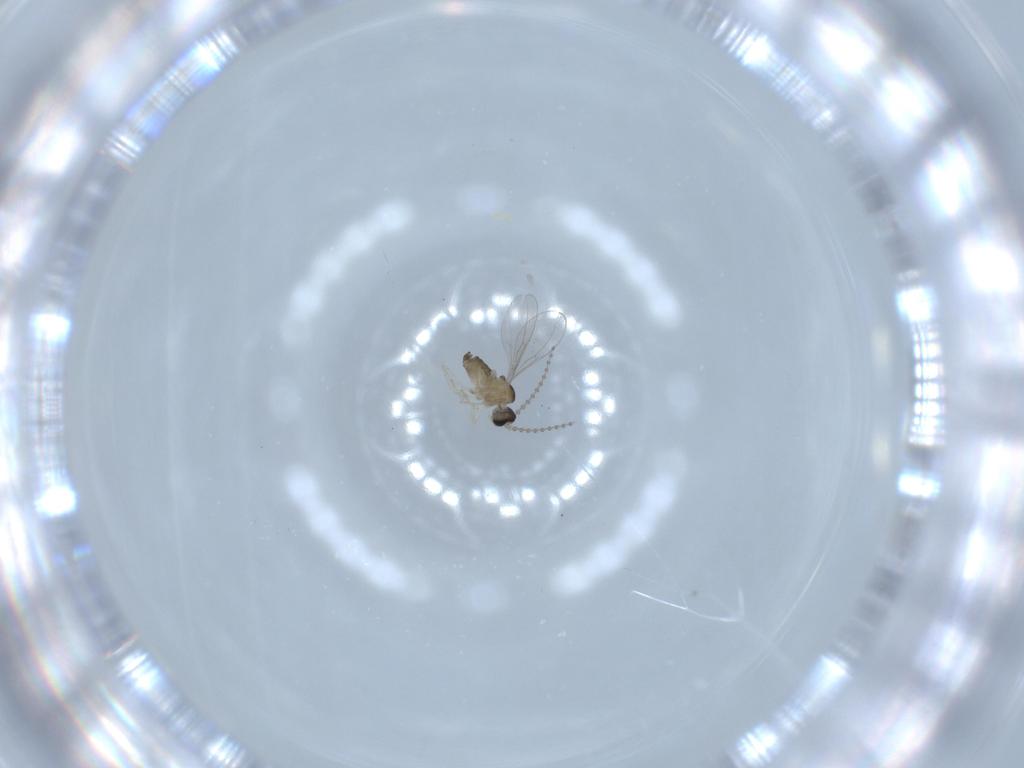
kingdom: Animalia
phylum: Arthropoda
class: Insecta
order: Diptera
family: Cecidomyiidae
